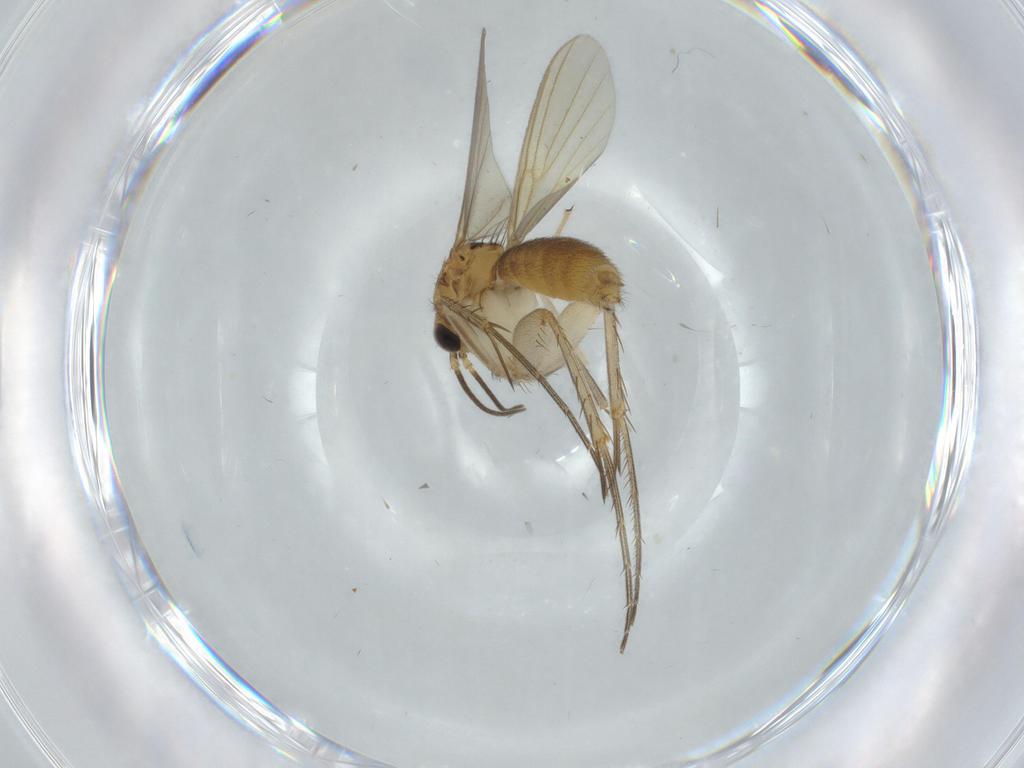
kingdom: Animalia
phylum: Arthropoda
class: Insecta
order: Diptera
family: Mycetophilidae
